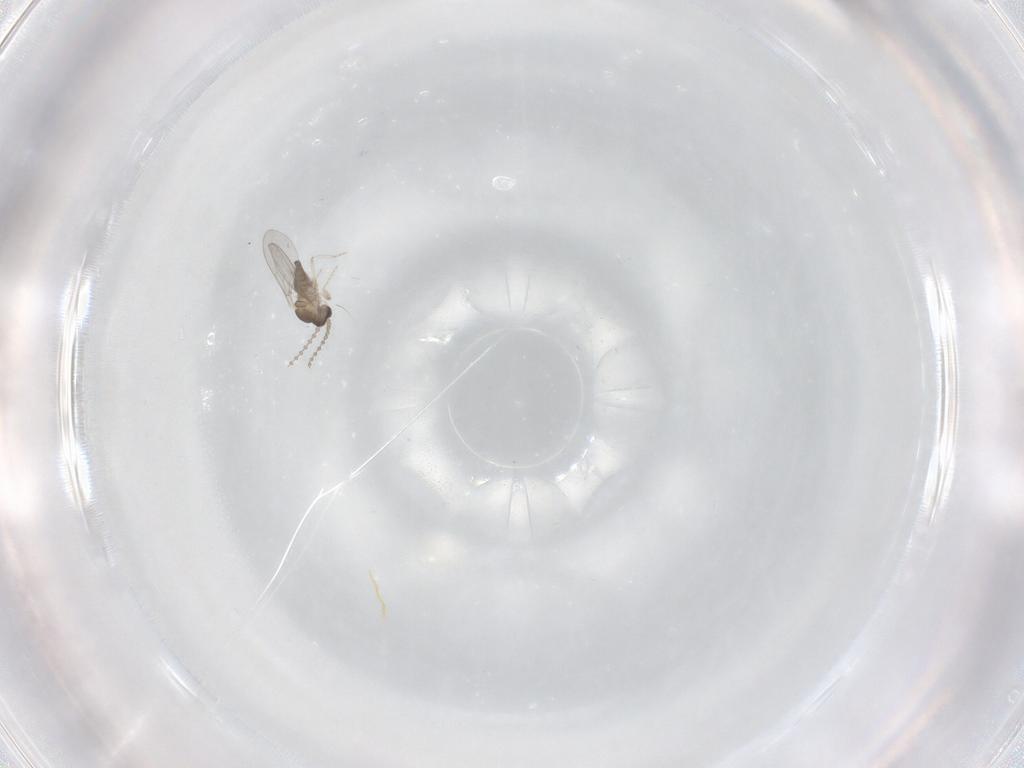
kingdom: Animalia
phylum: Arthropoda
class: Insecta
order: Diptera
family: Cecidomyiidae
